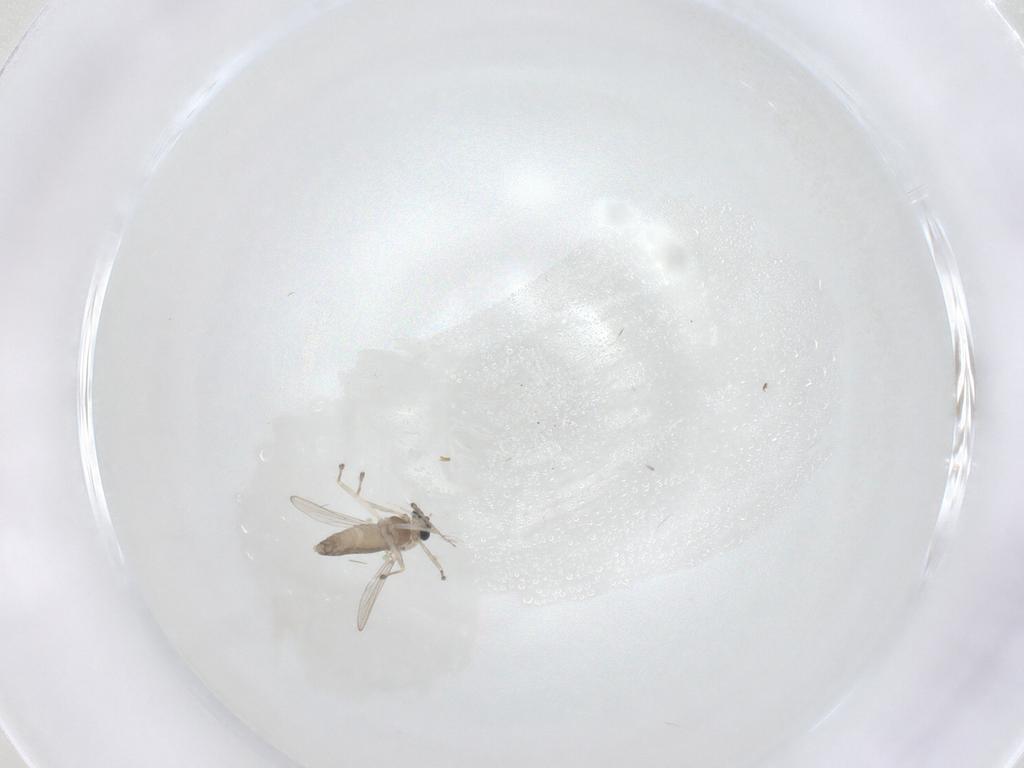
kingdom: Animalia
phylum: Arthropoda
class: Insecta
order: Diptera
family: Chironomidae
